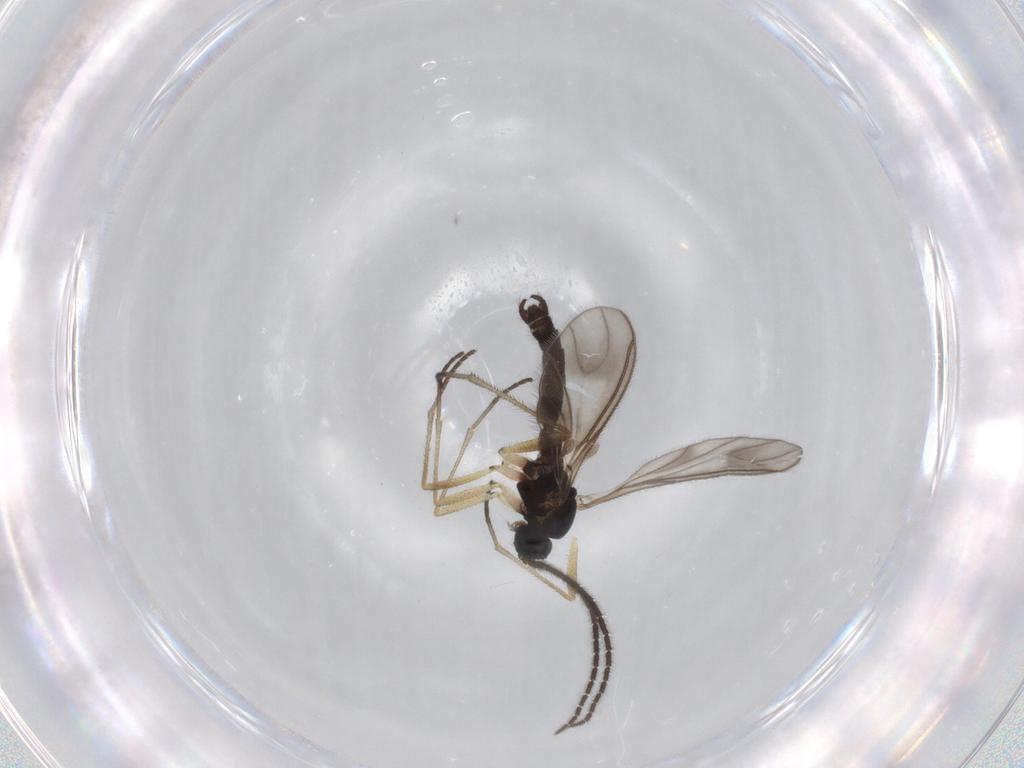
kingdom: Animalia
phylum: Arthropoda
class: Insecta
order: Diptera
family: Sciaridae
